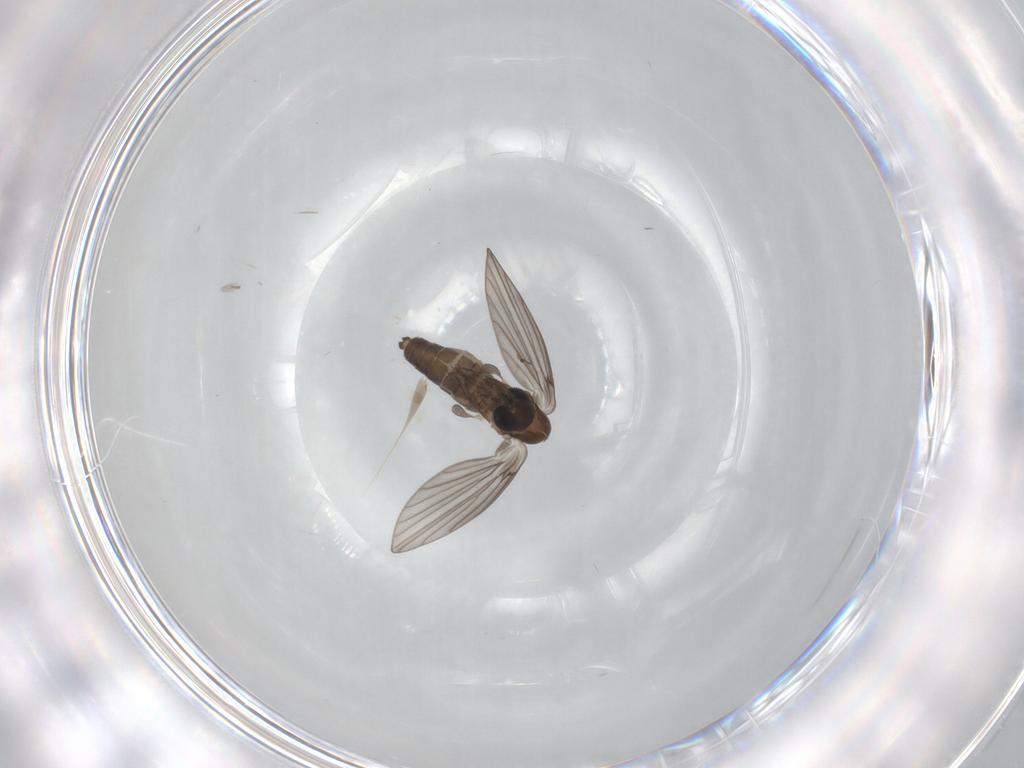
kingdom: Animalia
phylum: Arthropoda
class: Insecta
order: Diptera
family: Psychodidae
